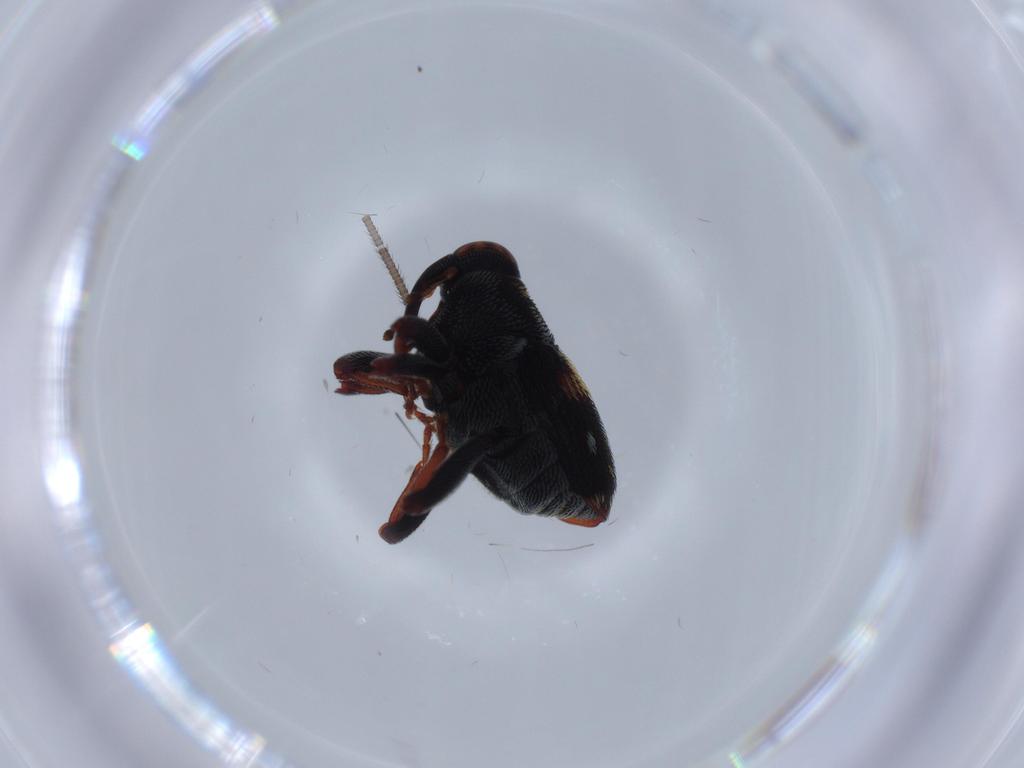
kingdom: Animalia
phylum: Arthropoda
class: Insecta
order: Coleoptera
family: Curculionidae
